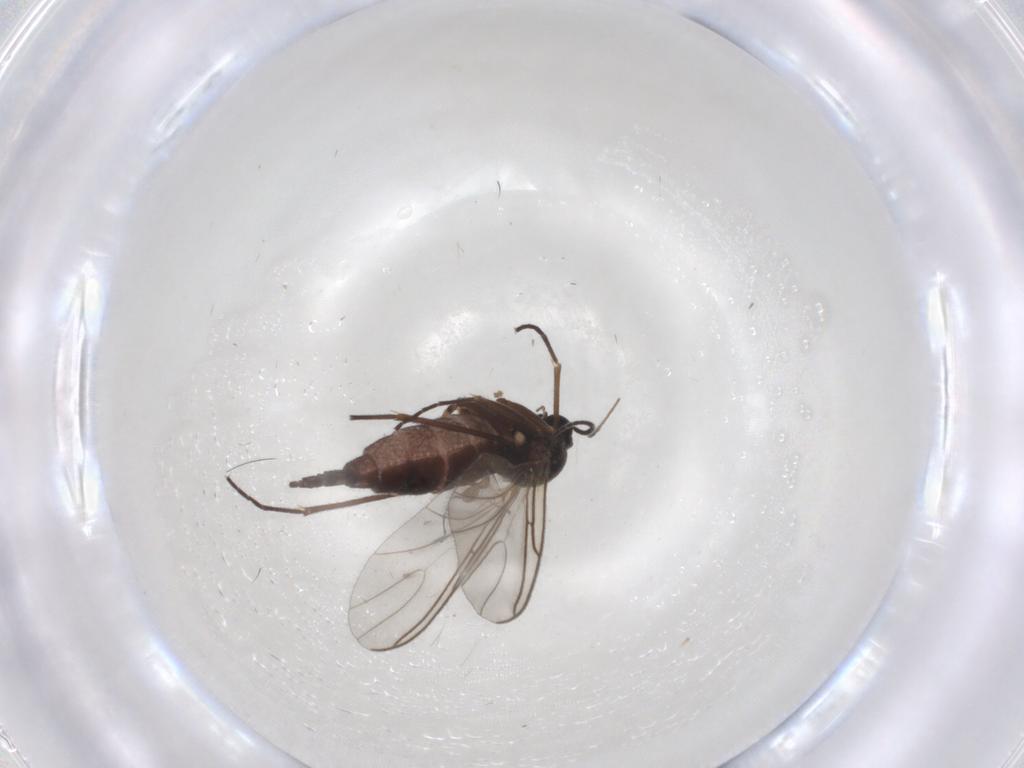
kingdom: Animalia
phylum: Arthropoda
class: Insecta
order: Diptera
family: Sciaridae
